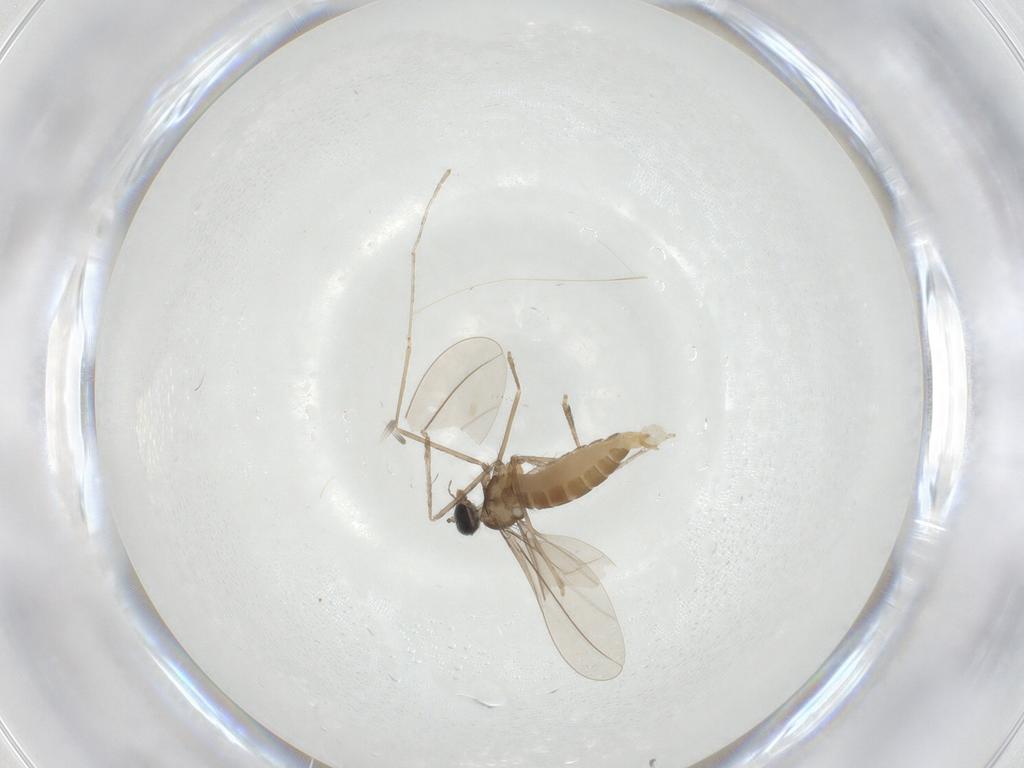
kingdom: Animalia
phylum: Arthropoda
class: Insecta
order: Diptera
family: Cecidomyiidae
